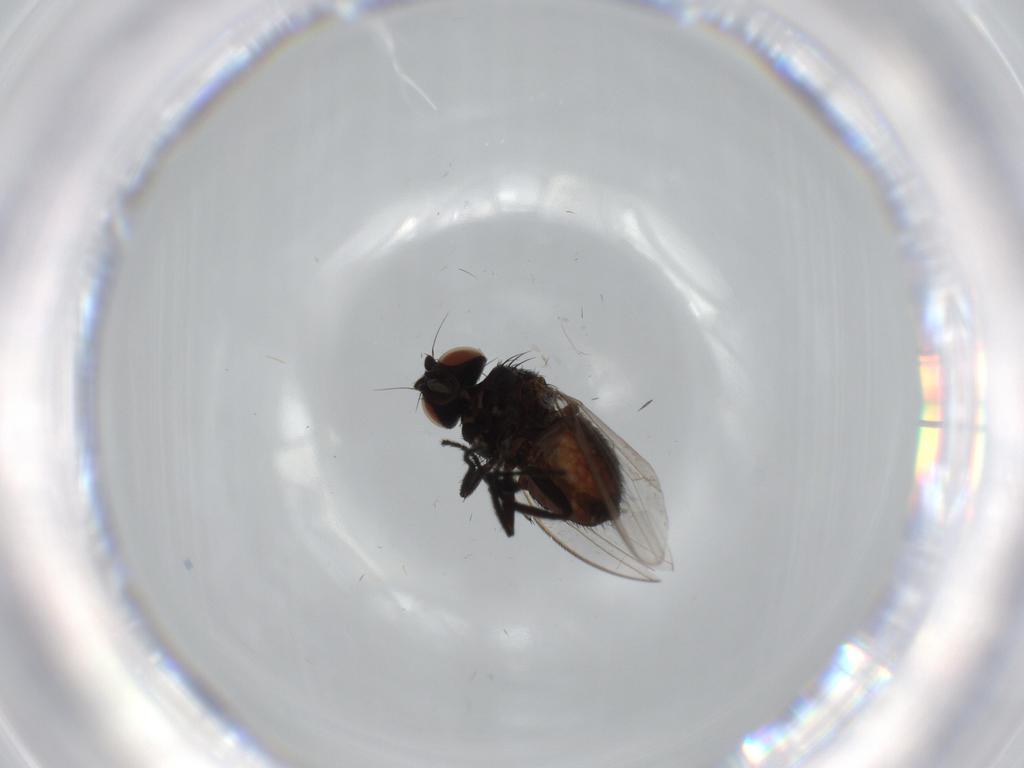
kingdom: Animalia
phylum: Arthropoda
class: Insecta
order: Diptera
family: Milichiidae
